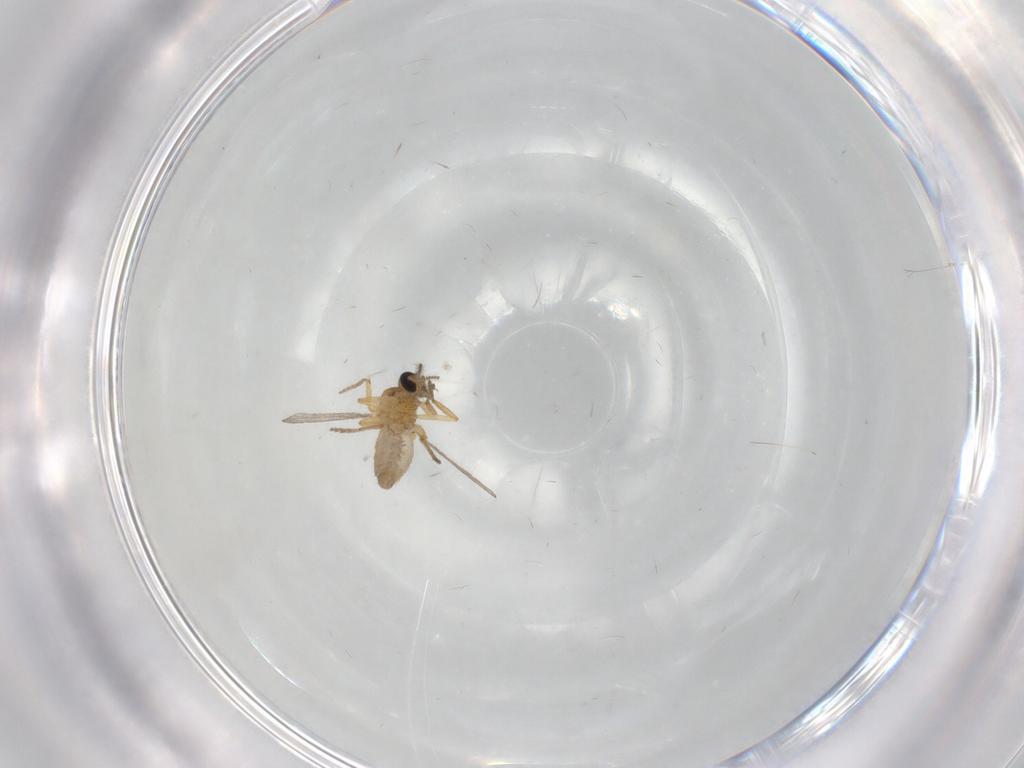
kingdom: Animalia
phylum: Arthropoda
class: Insecta
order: Diptera
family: Ceratopogonidae
